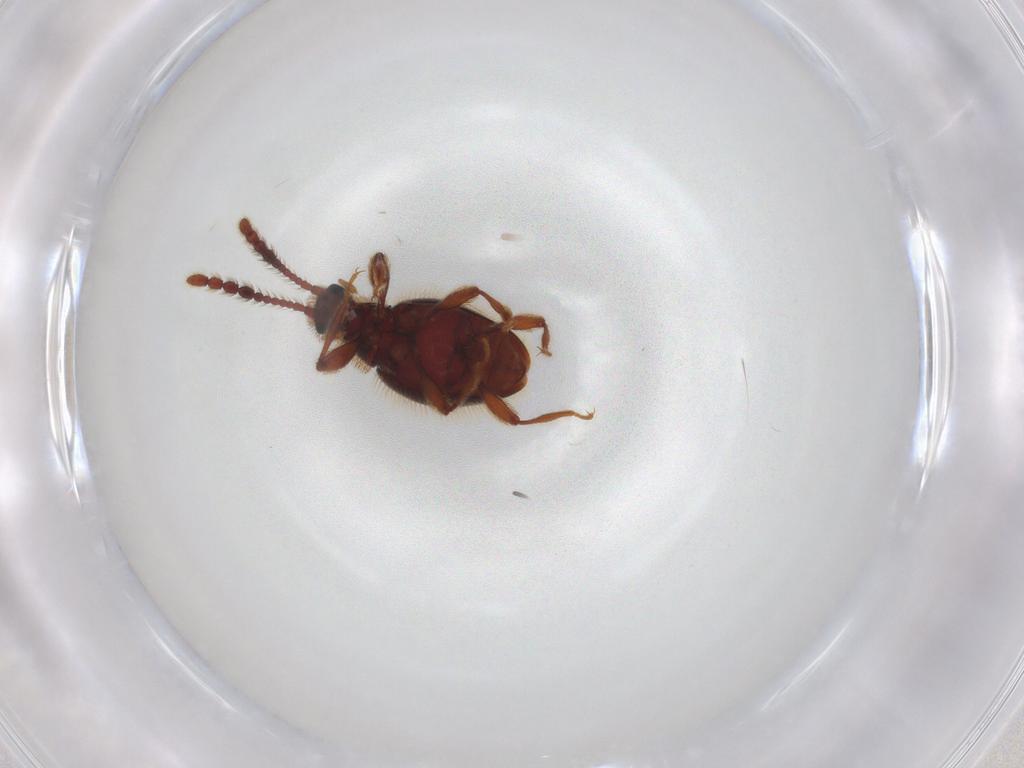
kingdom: Animalia
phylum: Arthropoda
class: Insecta
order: Coleoptera
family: Staphylinidae
